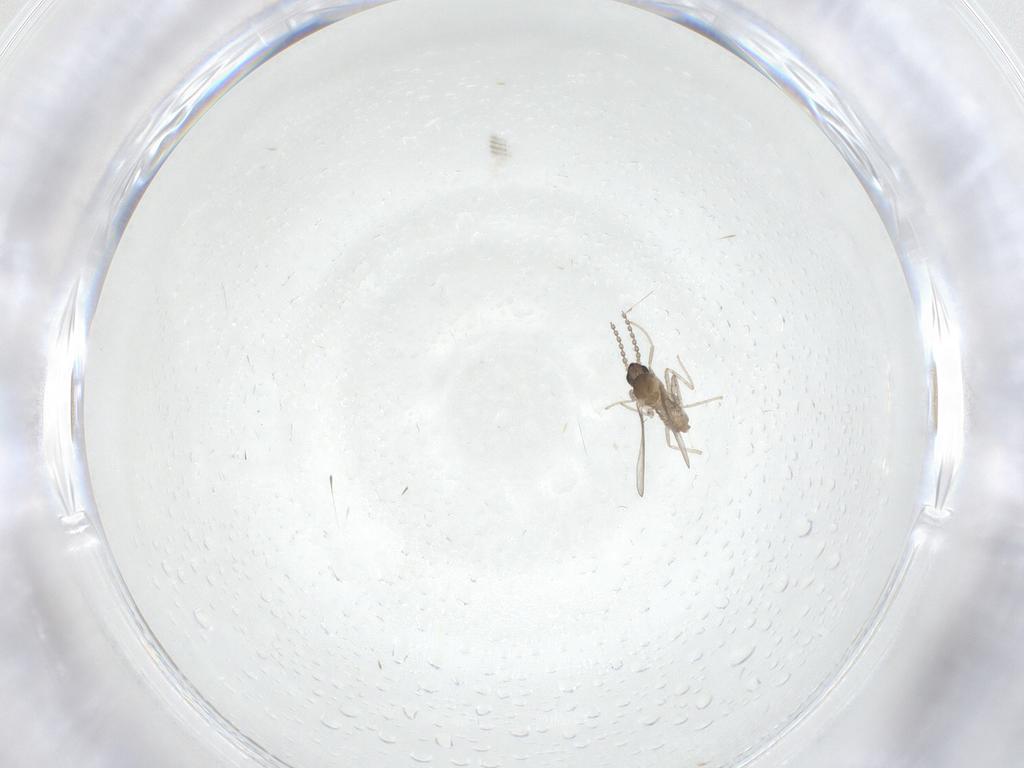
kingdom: Animalia
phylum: Arthropoda
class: Insecta
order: Diptera
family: Cecidomyiidae
